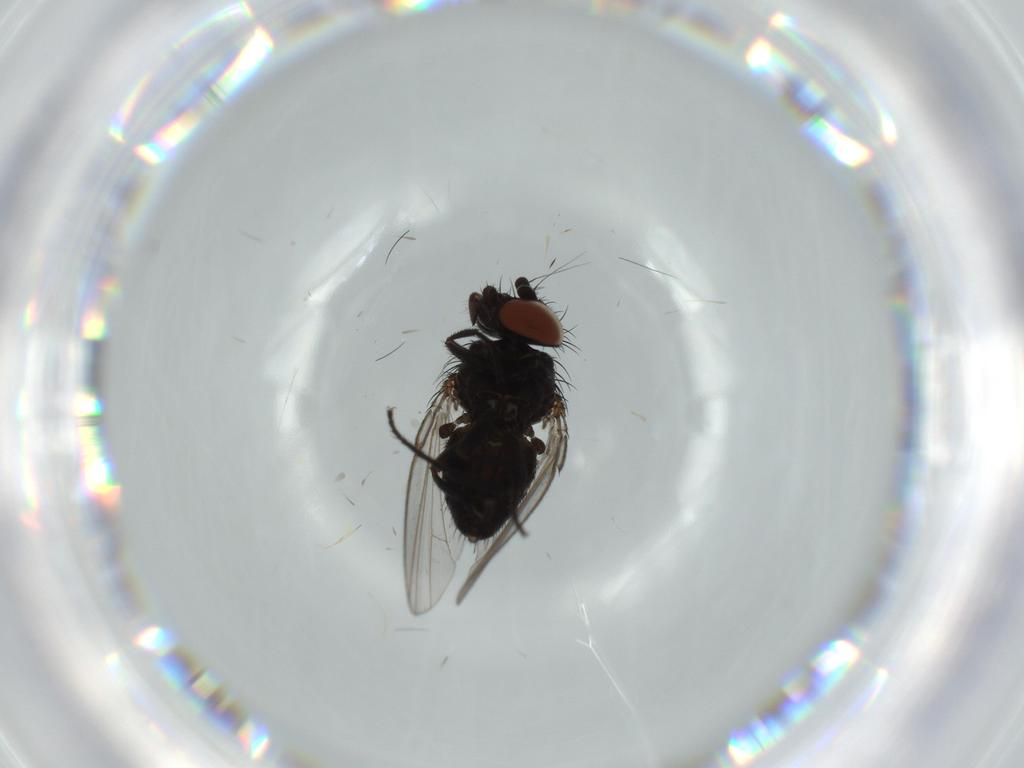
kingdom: Animalia
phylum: Arthropoda
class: Insecta
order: Diptera
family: Milichiidae
